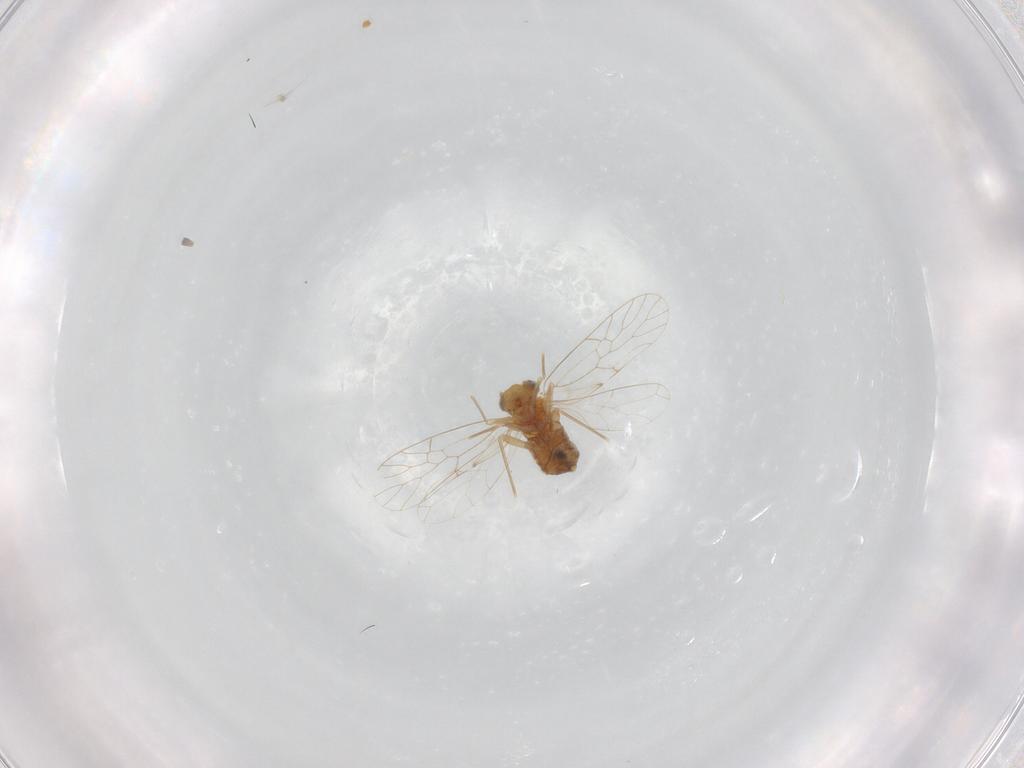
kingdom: Animalia
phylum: Arthropoda
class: Insecta
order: Psocodea
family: Prionoglarididae
